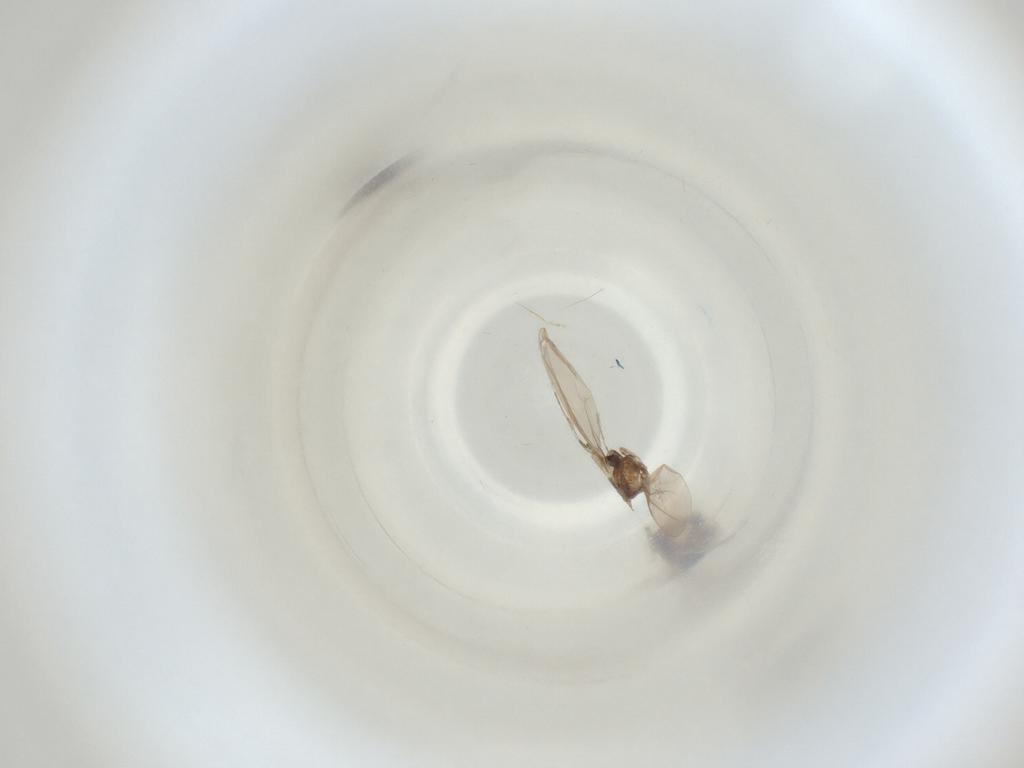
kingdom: Animalia
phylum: Arthropoda
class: Insecta
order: Diptera
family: Cecidomyiidae
